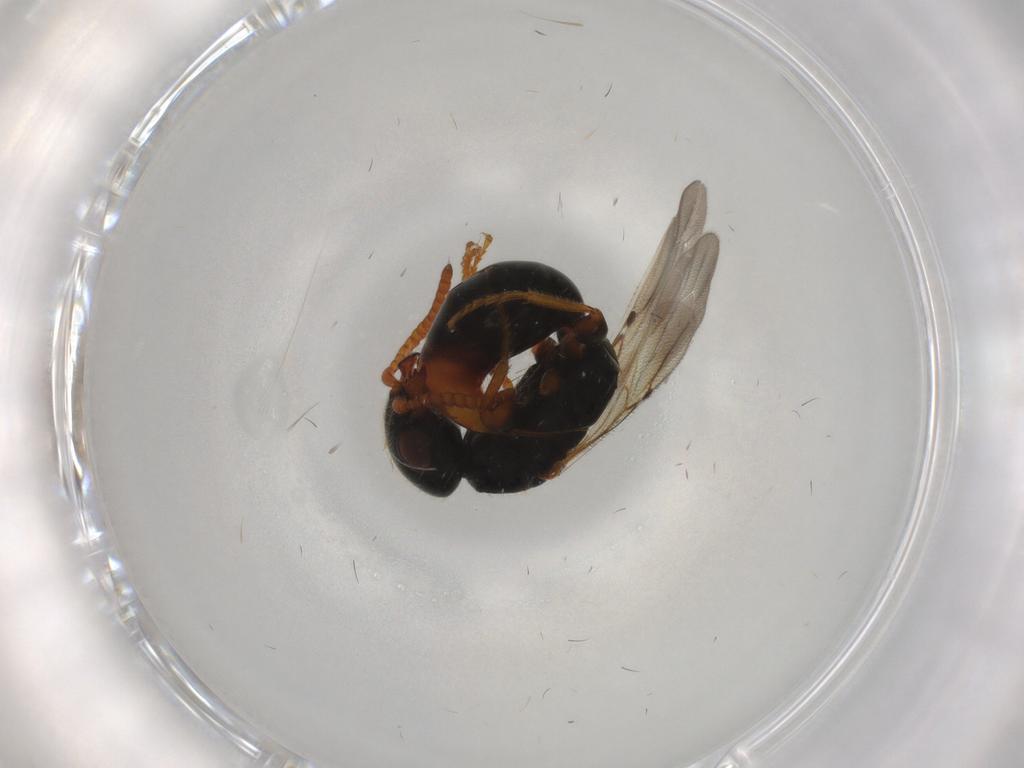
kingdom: Animalia
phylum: Arthropoda
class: Insecta
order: Hymenoptera
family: Bethylidae
